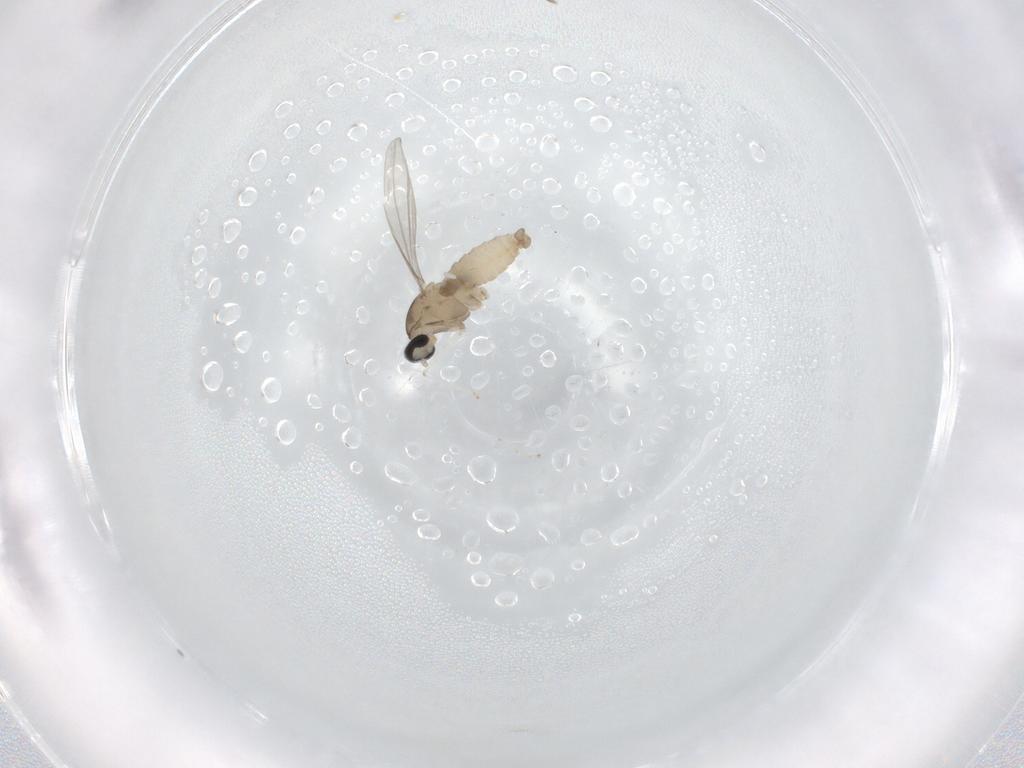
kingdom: Animalia
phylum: Arthropoda
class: Insecta
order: Diptera
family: Cecidomyiidae
